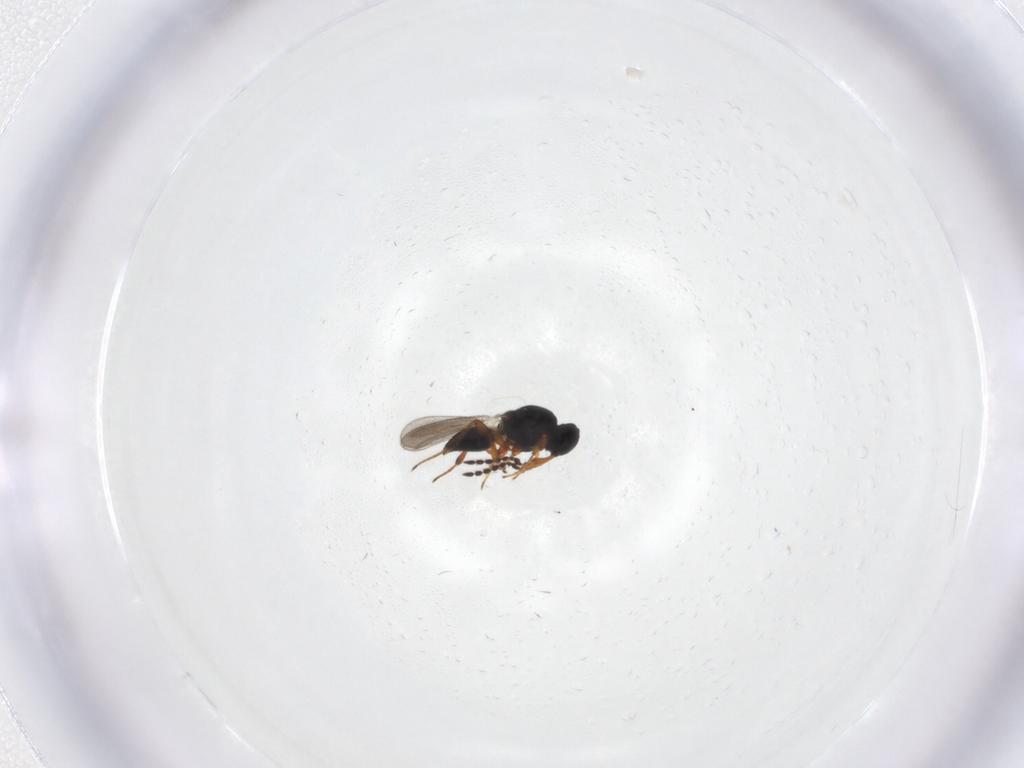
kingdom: Animalia
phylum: Arthropoda
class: Insecta
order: Hymenoptera
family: Platygastridae
